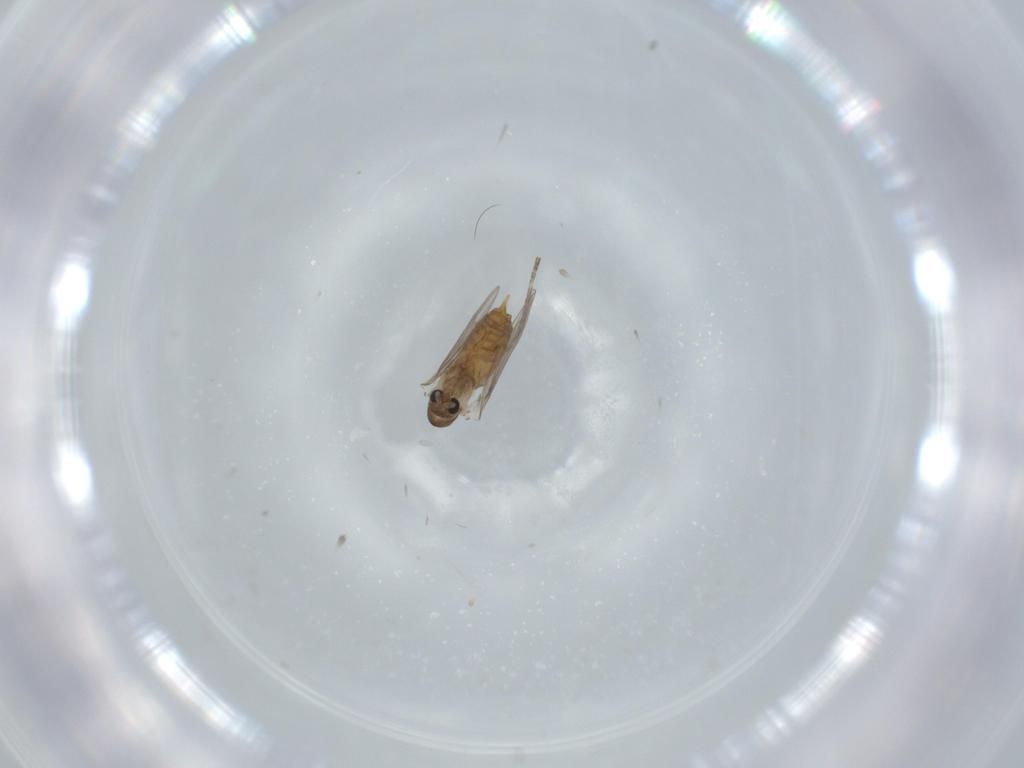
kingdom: Animalia
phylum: Arthropoda
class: Insecta
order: Diptera
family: Psychodidae
